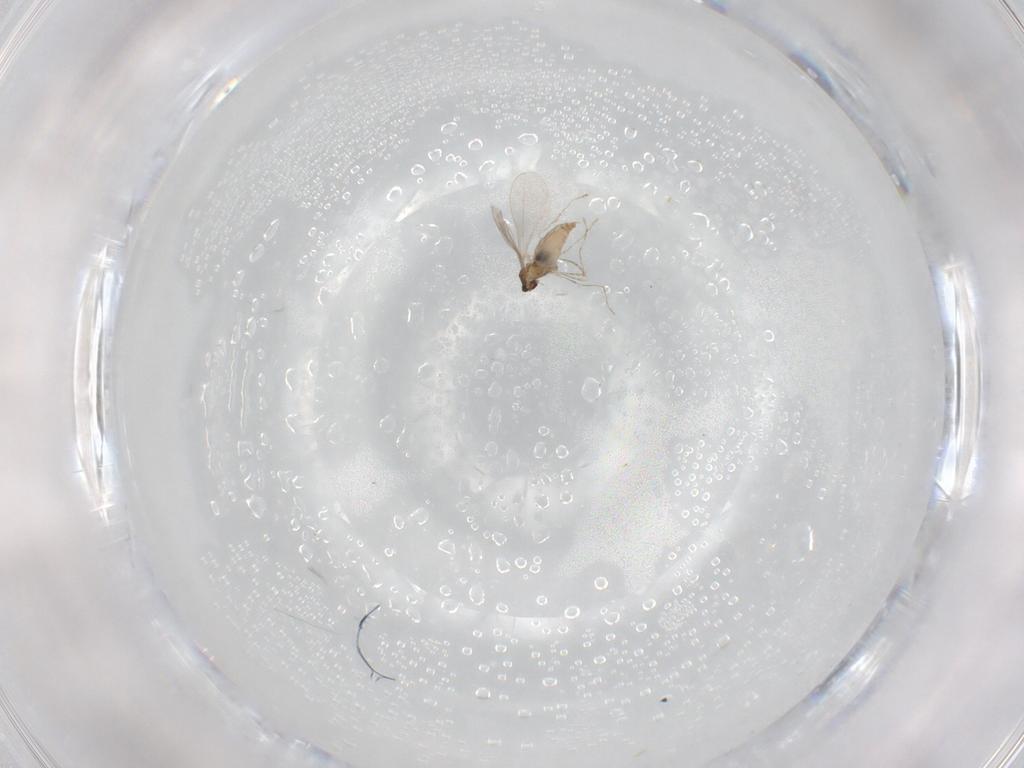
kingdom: Animalia
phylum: Arthropoda
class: Insecta
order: Diptera
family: Cecidomyiidae
